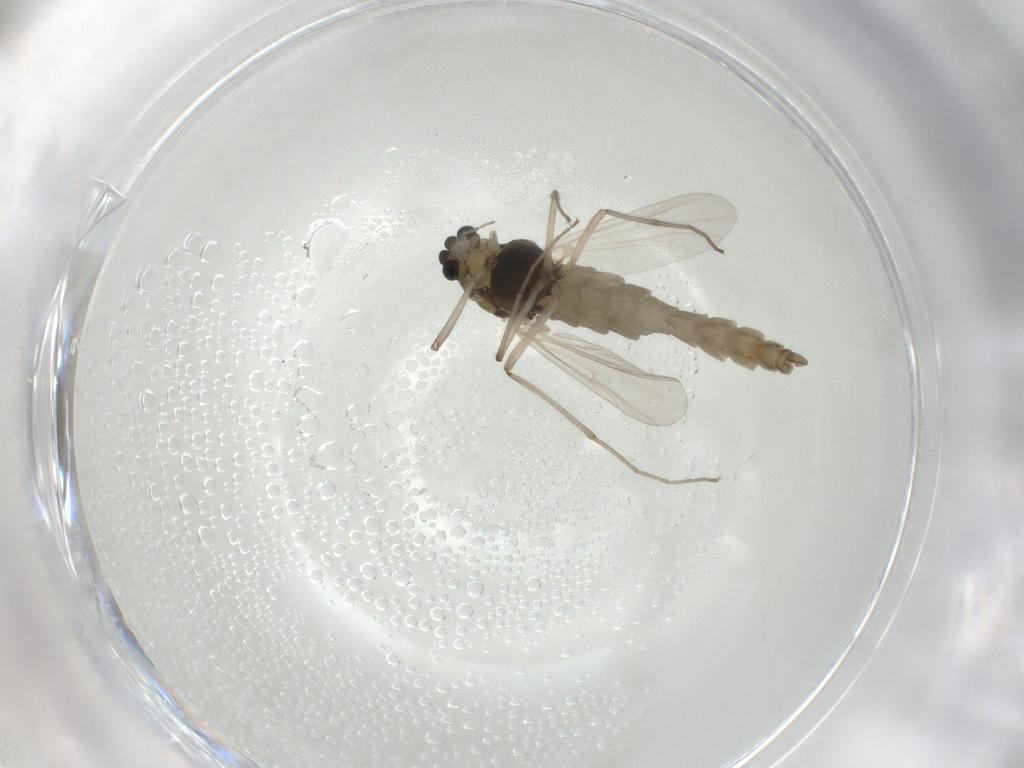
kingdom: Animalia
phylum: Arthropoda
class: Insecta
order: Diptera
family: Chironomidae
